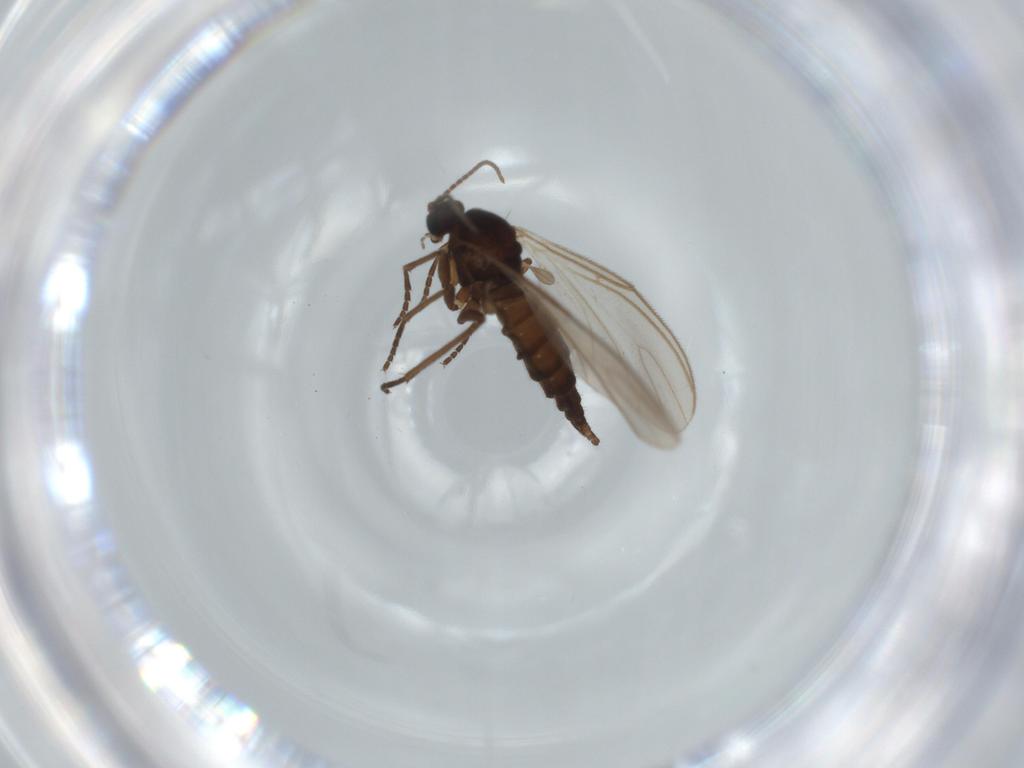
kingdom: Animalia
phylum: Arthropoda
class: Insecta
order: Diptera
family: Sciaridae
